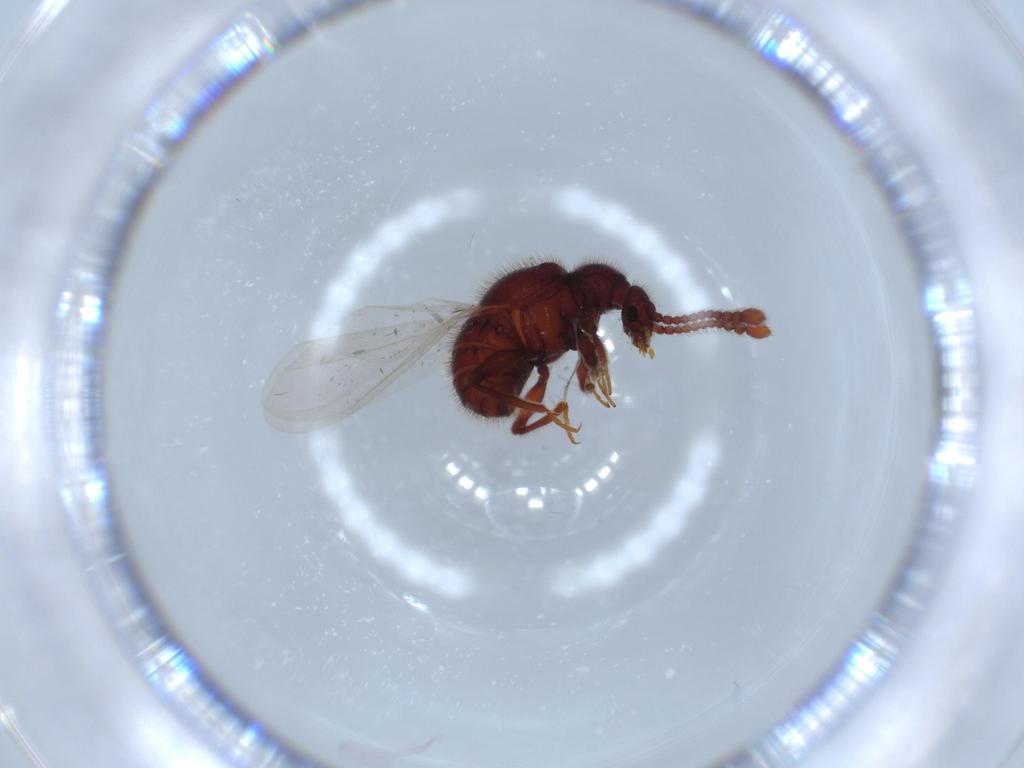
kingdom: Animalia
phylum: Arthropoda
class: Insecta
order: Coleoptera
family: Staphylinidae
